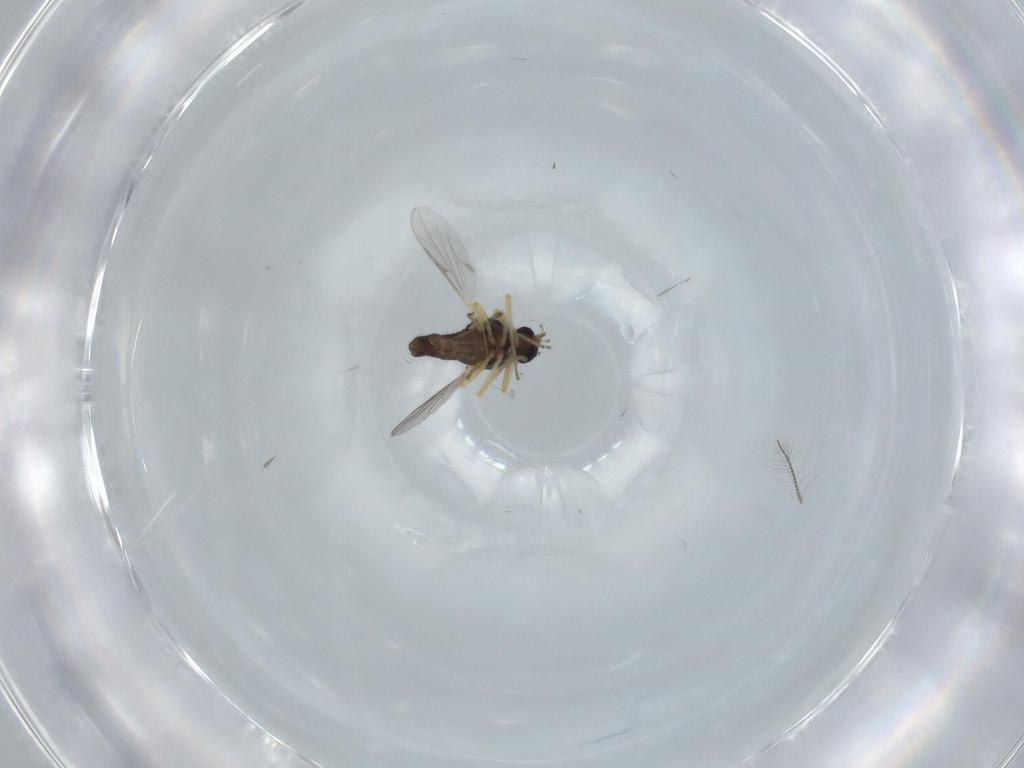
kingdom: Animalia
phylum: Arthropoda
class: Insecta
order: Diptera
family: Ceratopogonidae
